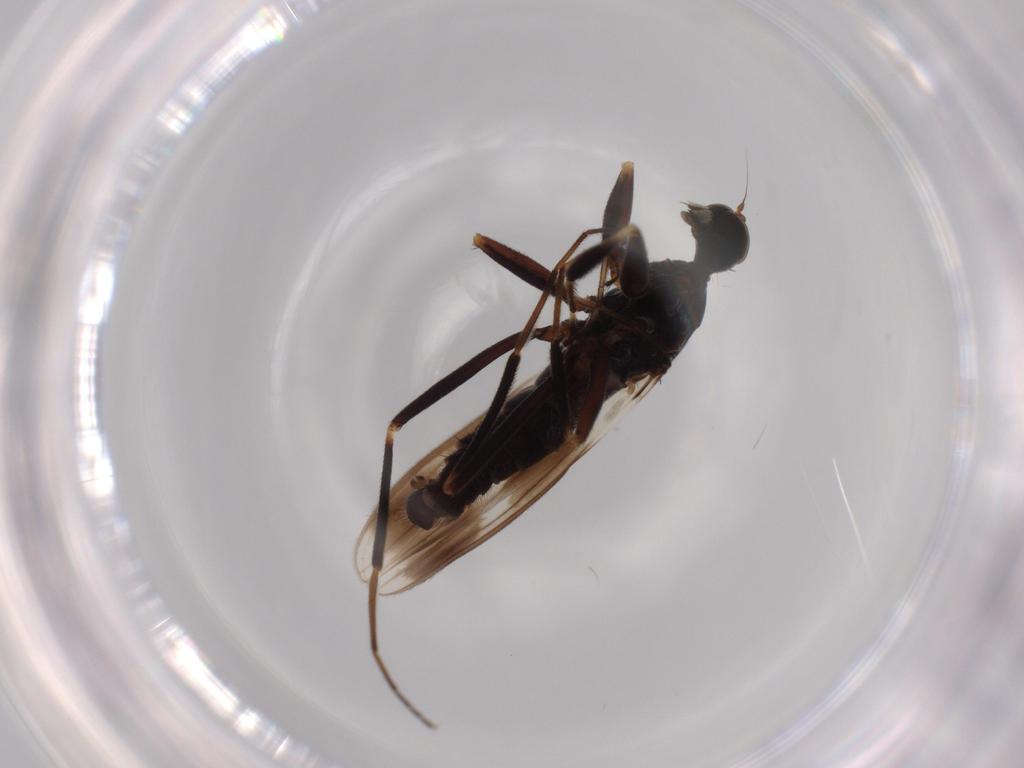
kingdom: Animalia
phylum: Arthropoda
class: Insecta
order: Diptera
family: Hybotidae
